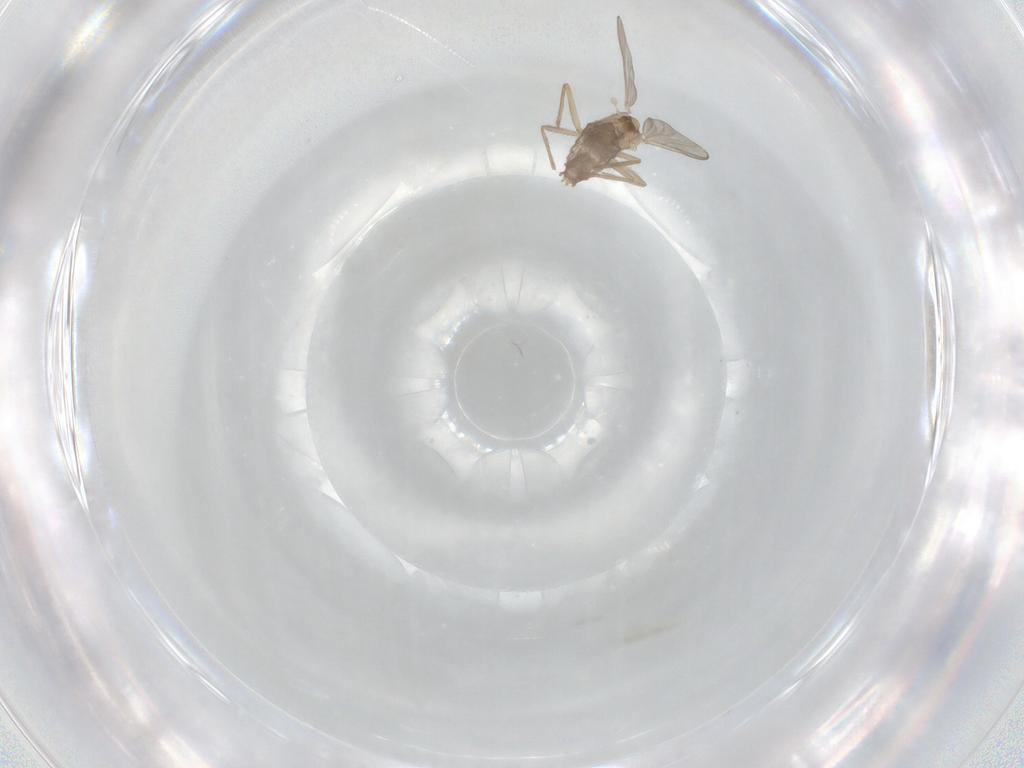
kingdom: Animalia
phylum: Arthropoda
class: Insecta
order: Diptera
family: Chironomidae
